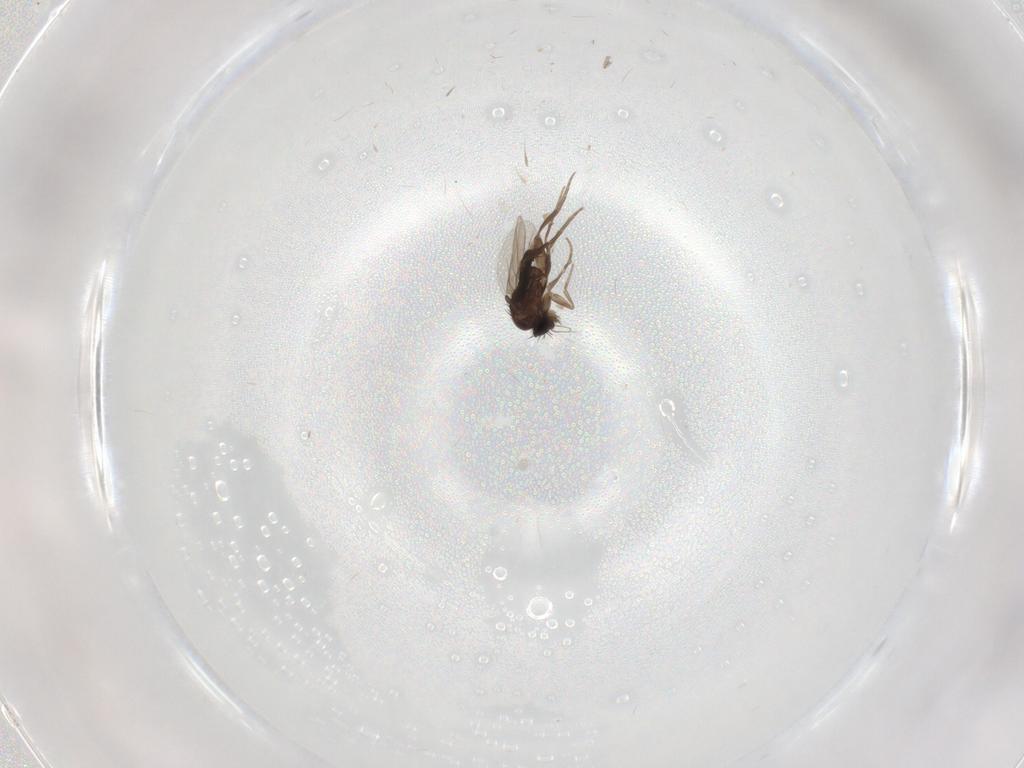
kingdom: Animalia
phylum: Arthropoda
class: Insecta
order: Diptera
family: Phoridae
